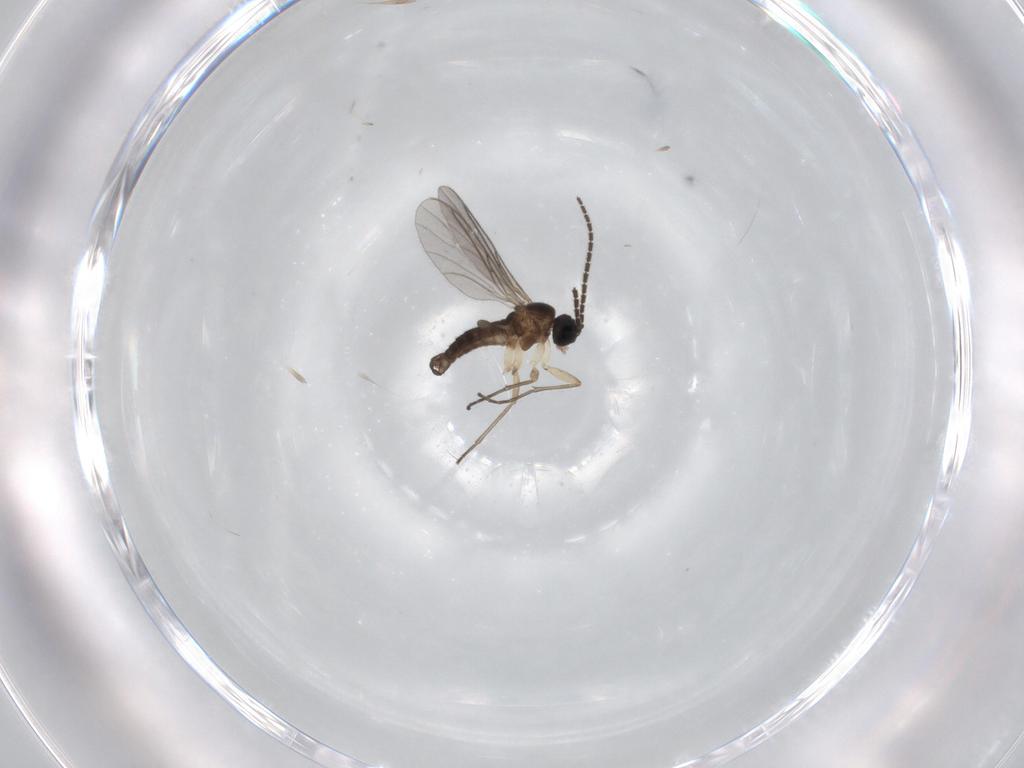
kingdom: Animalia
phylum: Arthropoda
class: Insecta
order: Diptera
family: Sciaridae
